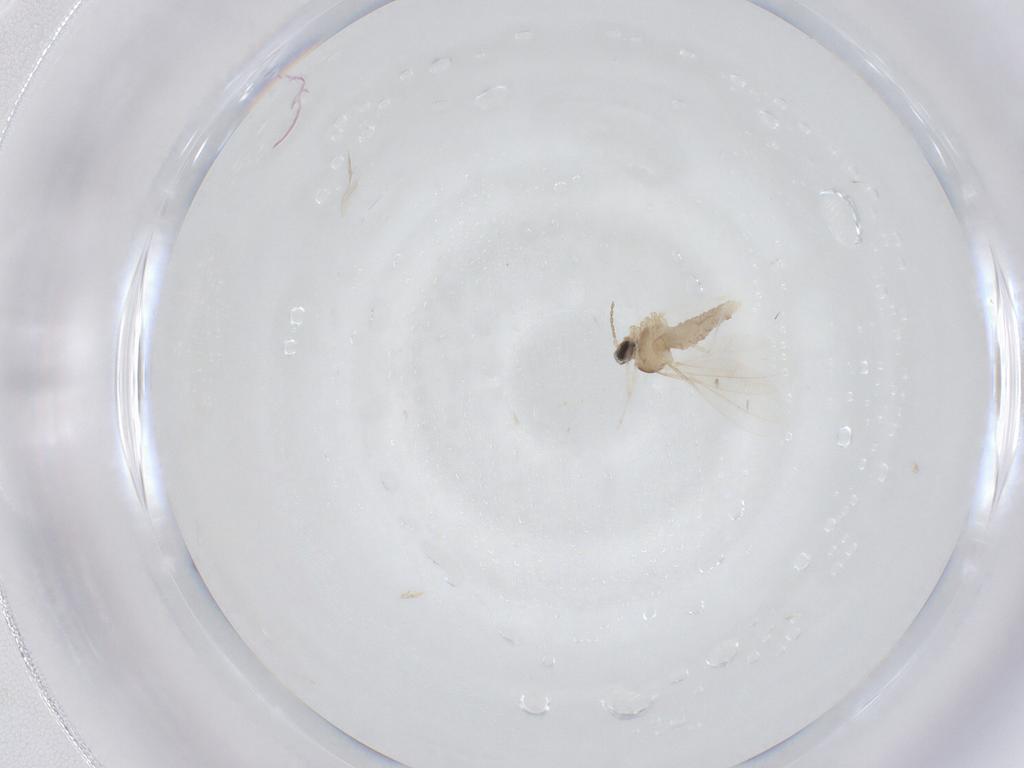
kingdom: Animalia
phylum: Arthropoda
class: Insecta
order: Diptera
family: Cecidomyiidae
